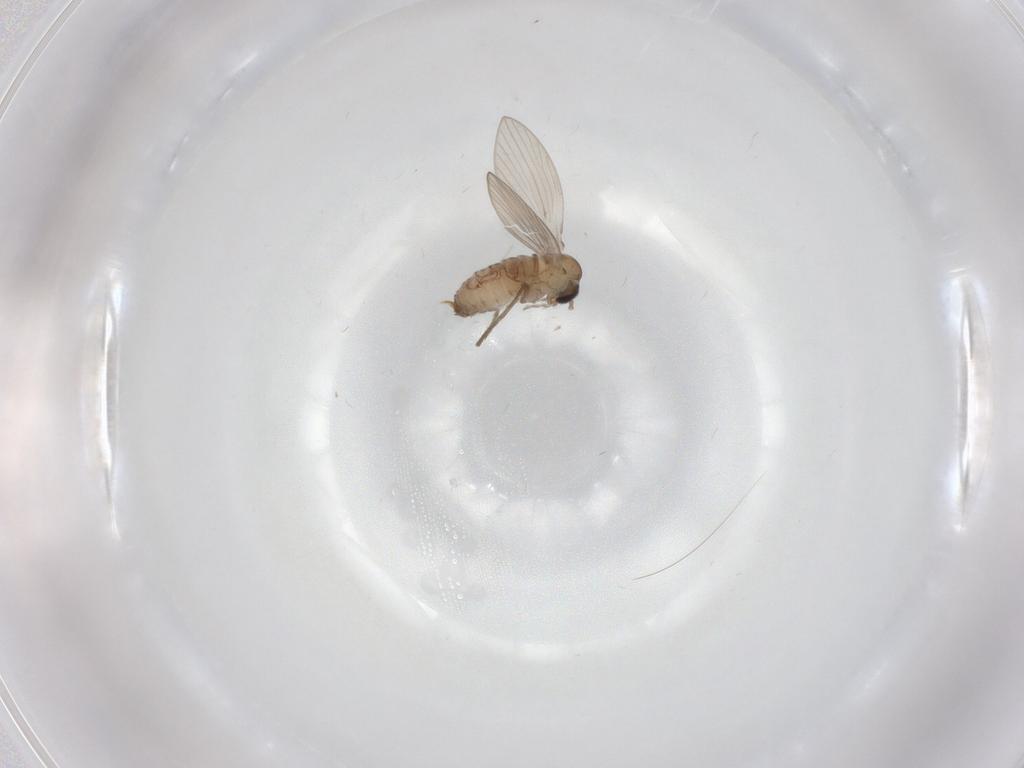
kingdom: Animalia
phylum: Arthropoda
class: Insecta
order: Diptera
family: Psychodidae
